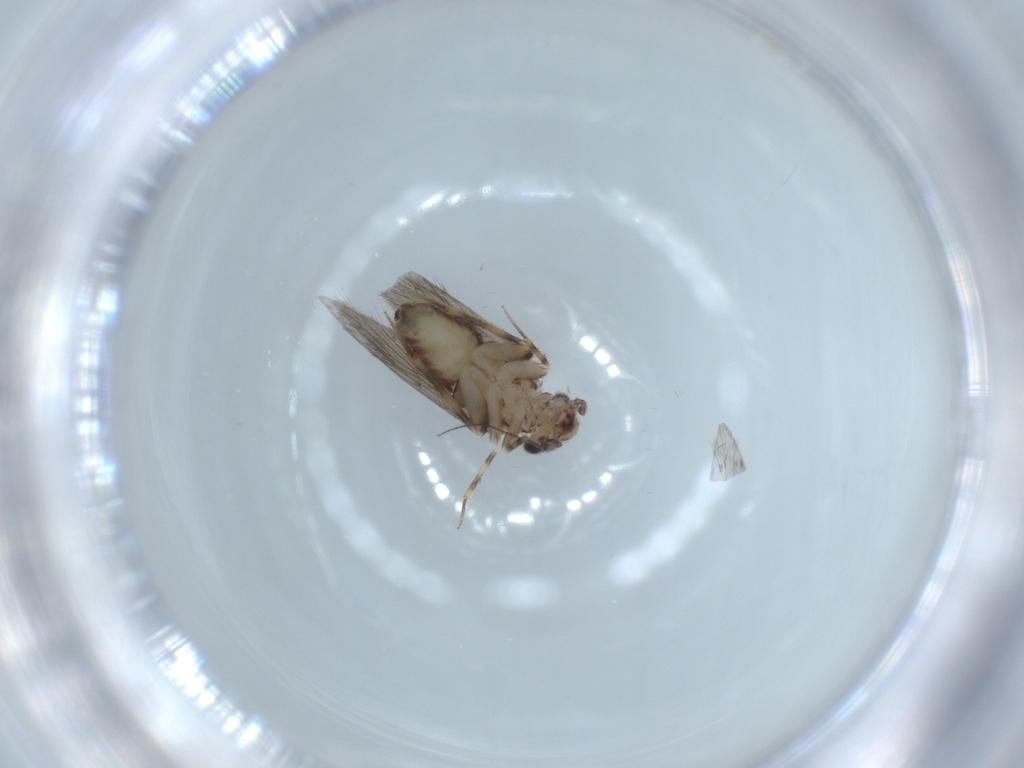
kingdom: Animalia
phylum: Arthropoda
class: Insecta
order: Psocodea
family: Lepidopsocidae
